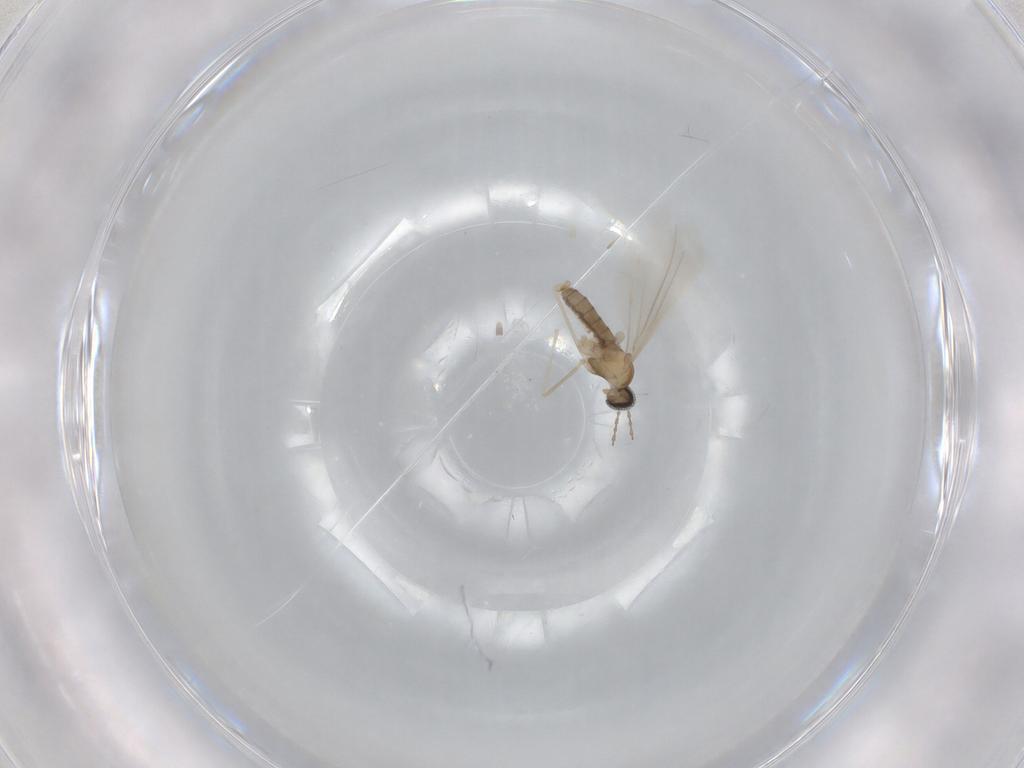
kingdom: Animalia
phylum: Arthropoda
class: Insecta
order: Diptera
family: Cecidomyiidae
